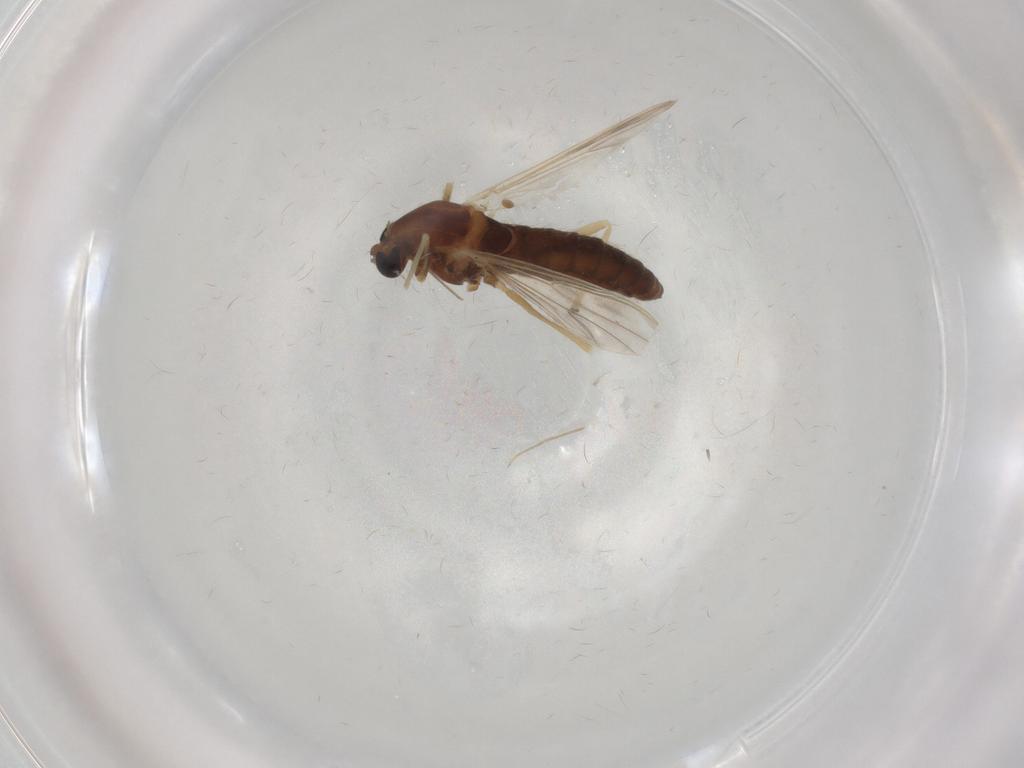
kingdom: Animalia
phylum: Arthropoda
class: Insecta
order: Diptera
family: Chironomidae
